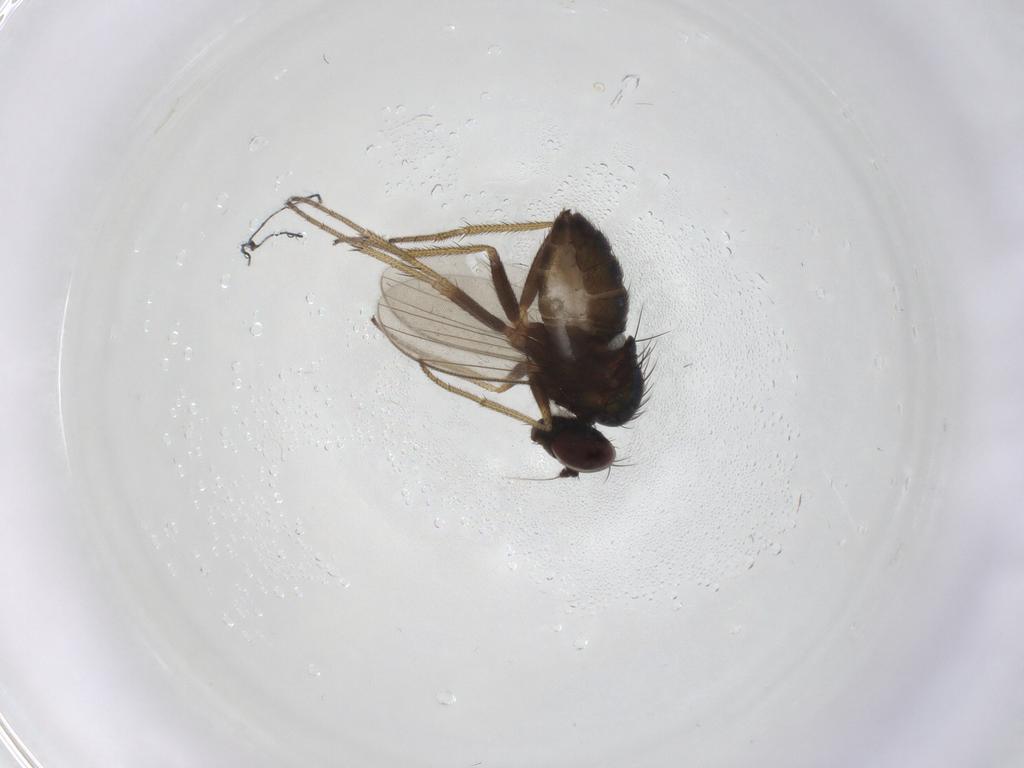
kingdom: Animalia
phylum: Arthropoda
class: Insecta
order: Diptera
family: Dolichopodidae
